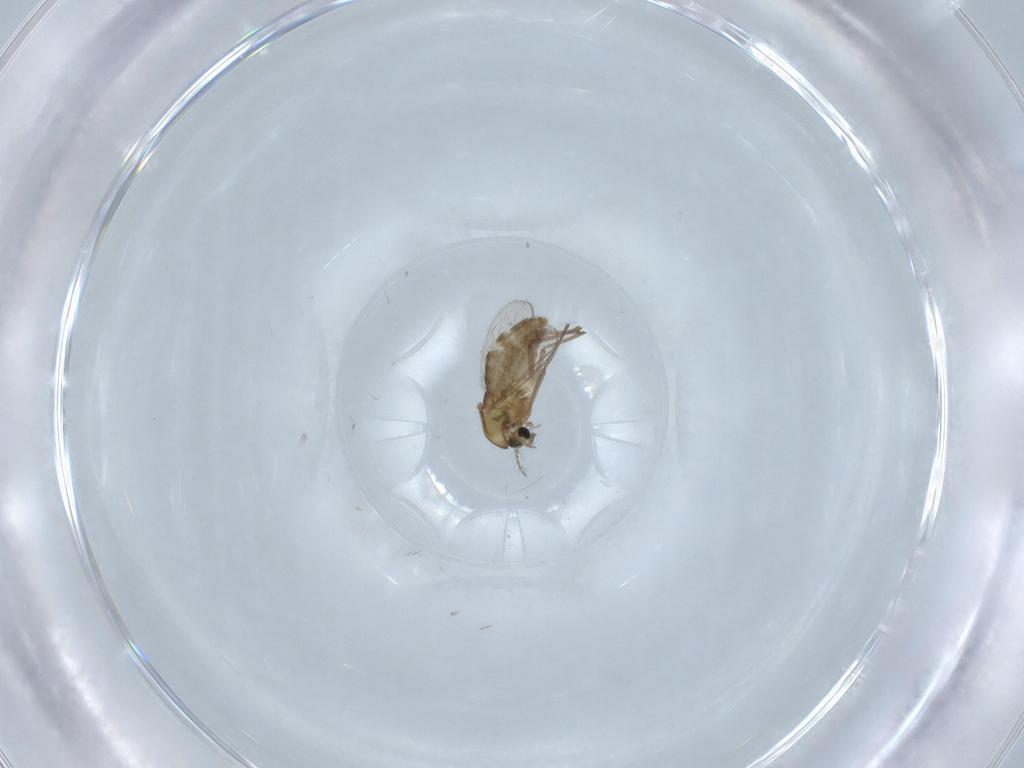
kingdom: Animalia
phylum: Arthropoda
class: Insecta
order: Diptera
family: Chironomidae
